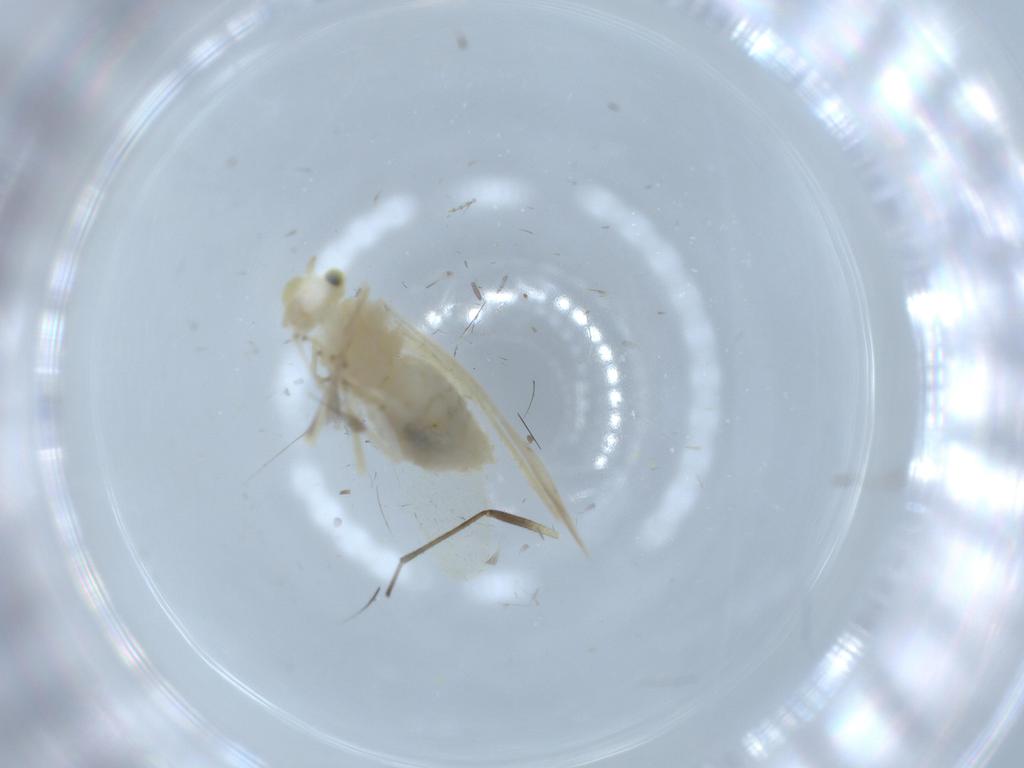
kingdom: Animalia
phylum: Arthropoda
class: Insecta
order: Psocodea
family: Caeciliusidae
